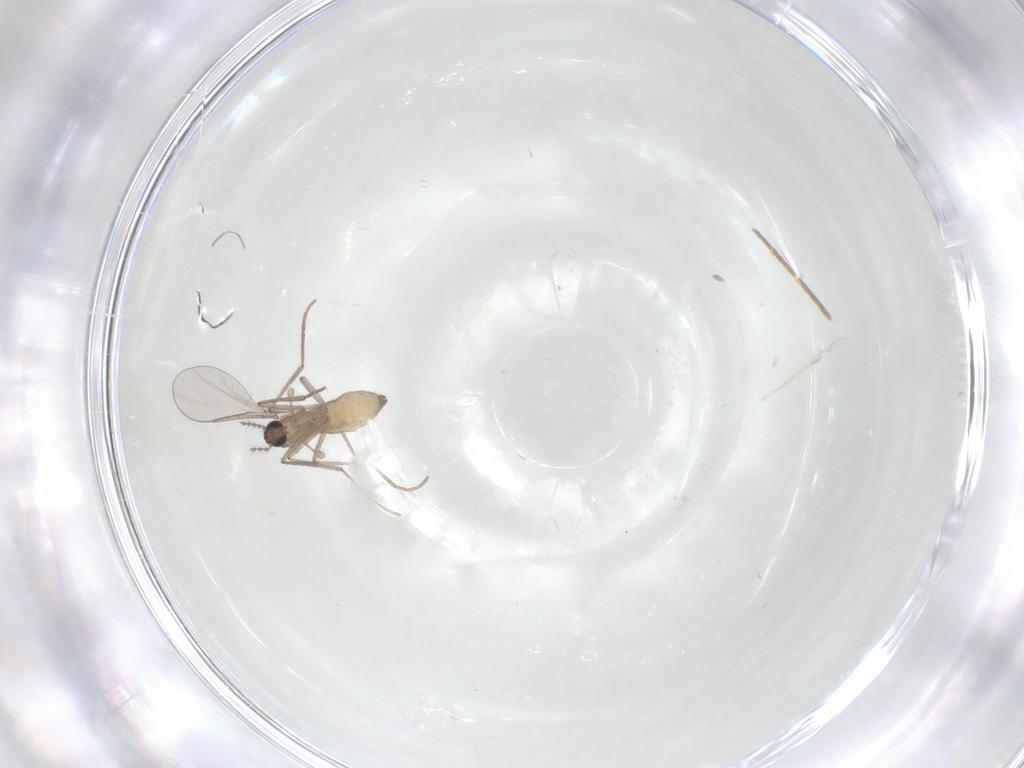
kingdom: Animalia
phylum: Arthropoda
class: Insecta
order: Diptera
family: Cecidomyiidae
